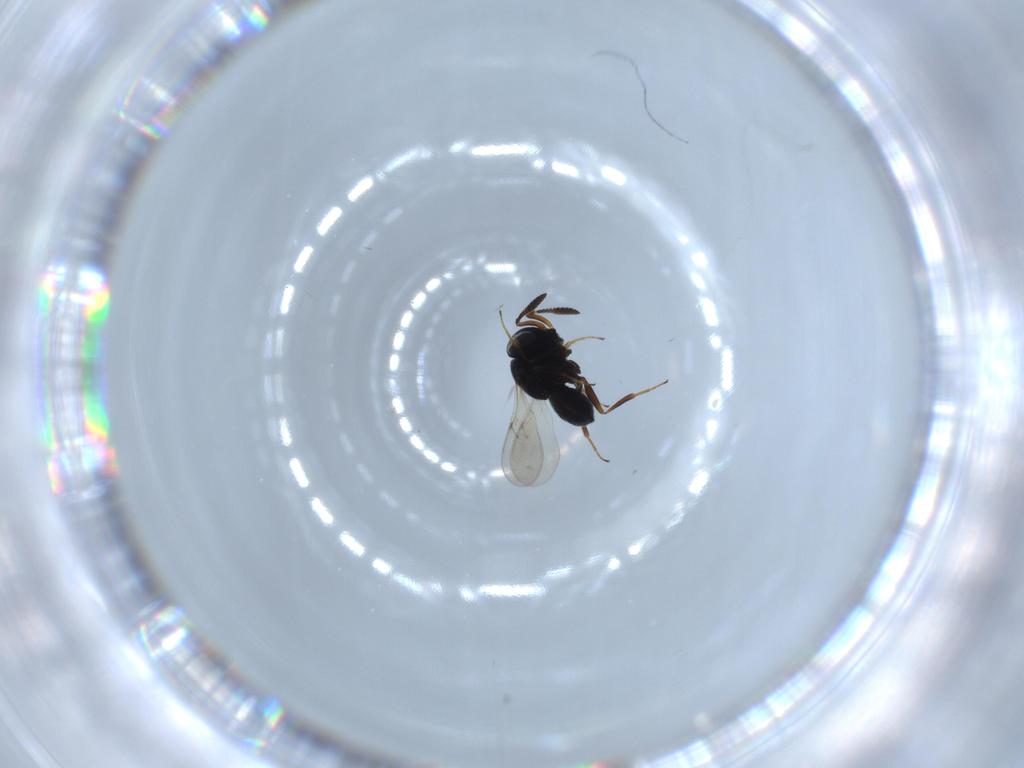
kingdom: Animalia
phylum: Arthropoda
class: Insecta
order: Hymenoptera
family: Scelionidae
